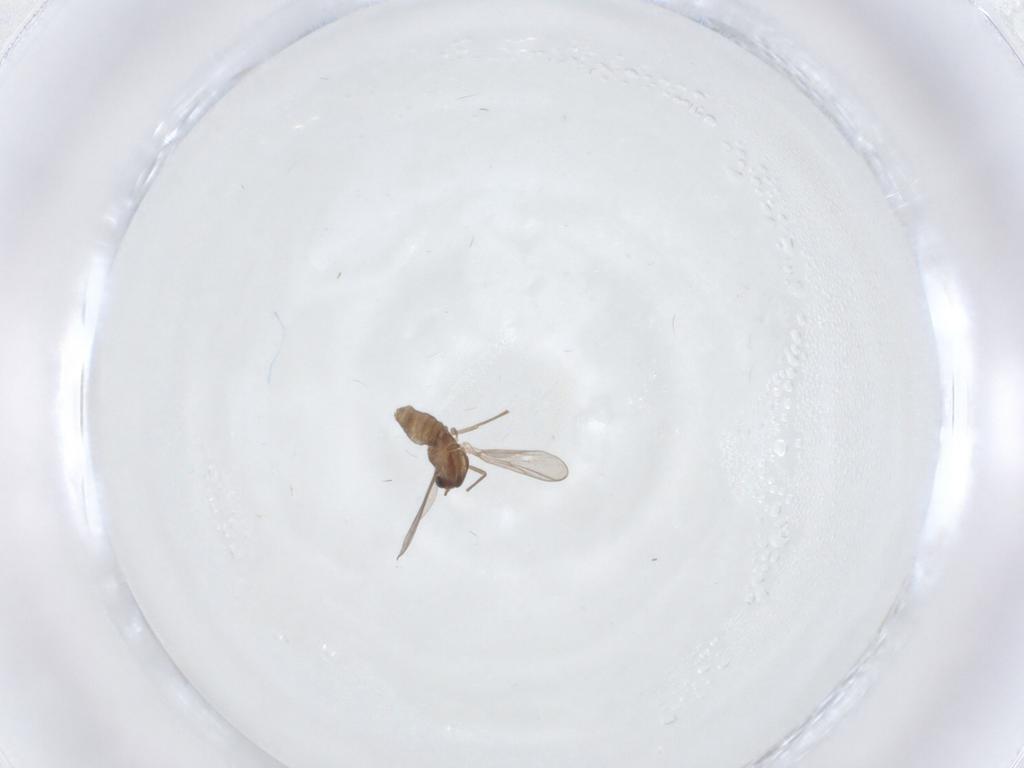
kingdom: Animalia
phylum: Arthropoda
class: Insecta
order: Diptera
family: Chironomidae
